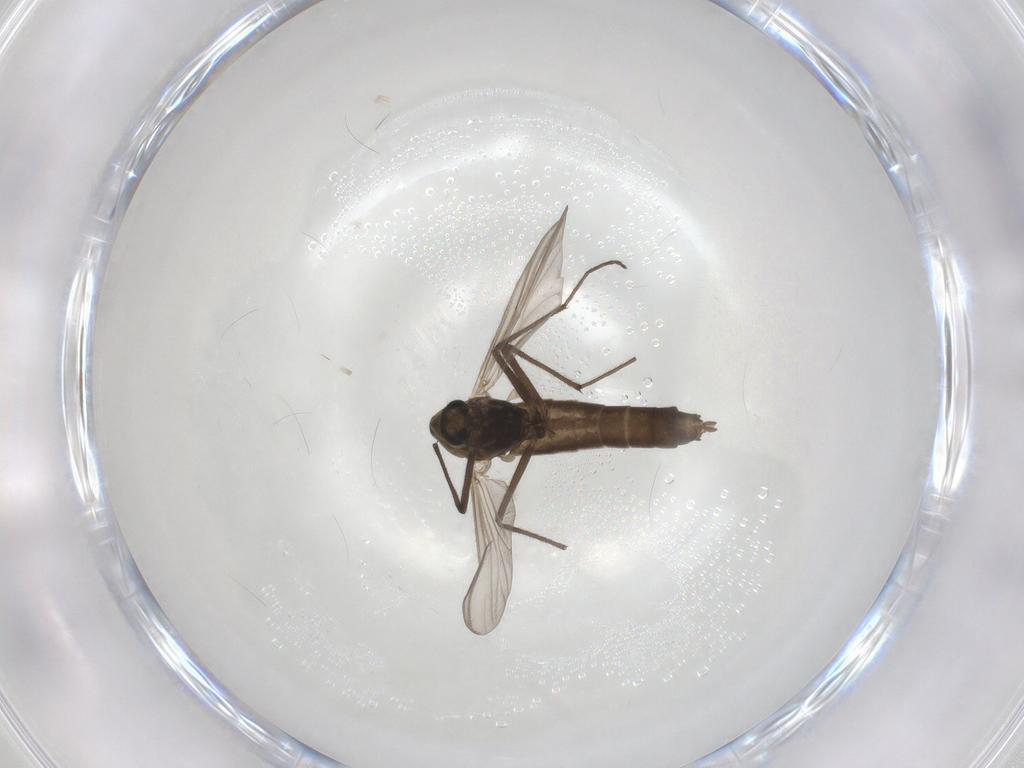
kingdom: Animalia
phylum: Arthropoda
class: Insecta
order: Diptera
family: Chironomidae
